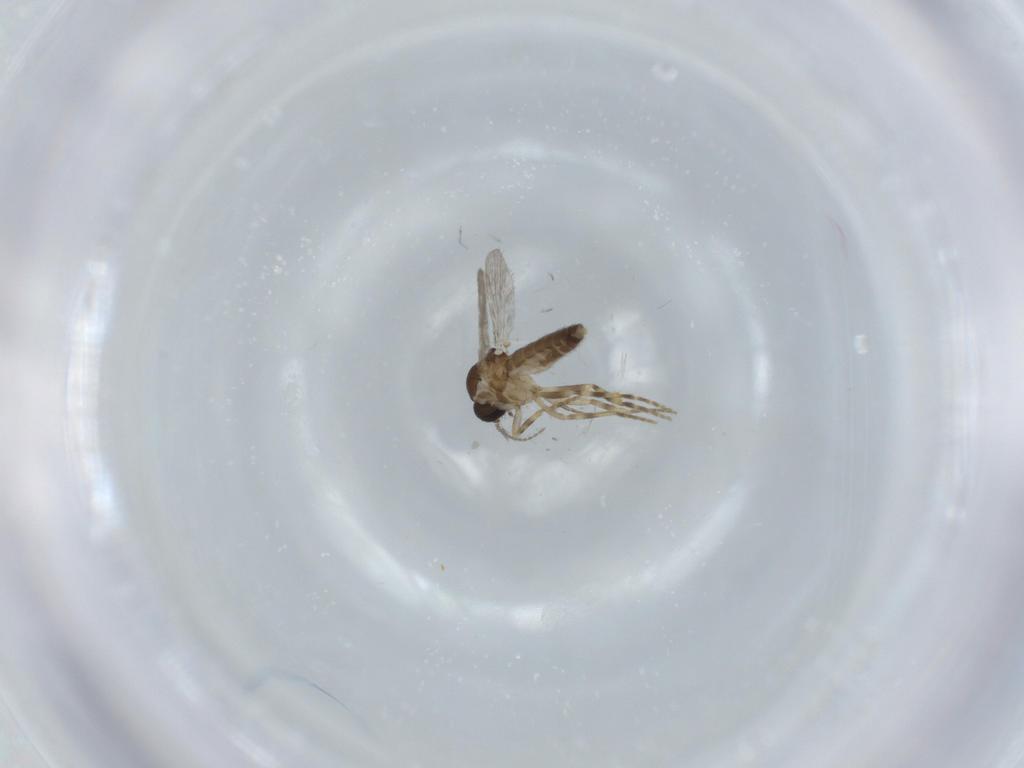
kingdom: Animalia
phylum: Arthropoda
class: Insecta
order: Diptera
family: Ceratopogonidae
